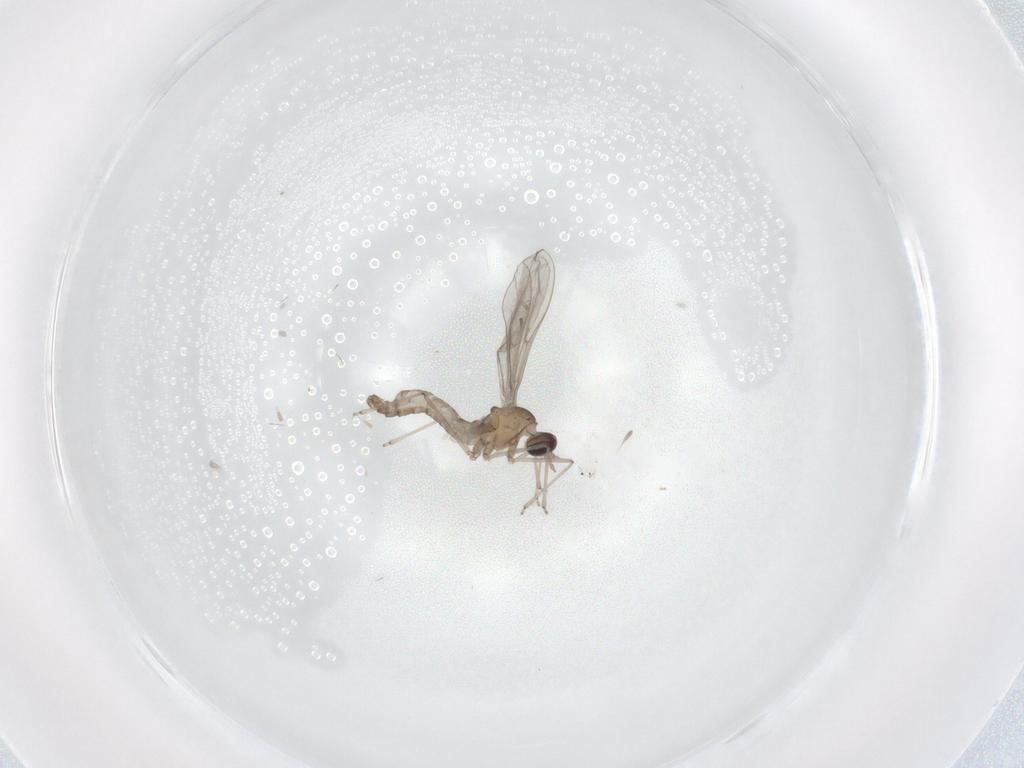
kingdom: Animalia
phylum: Arthropoda
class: Insecta
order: Diptera
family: Cecidomyiidae
